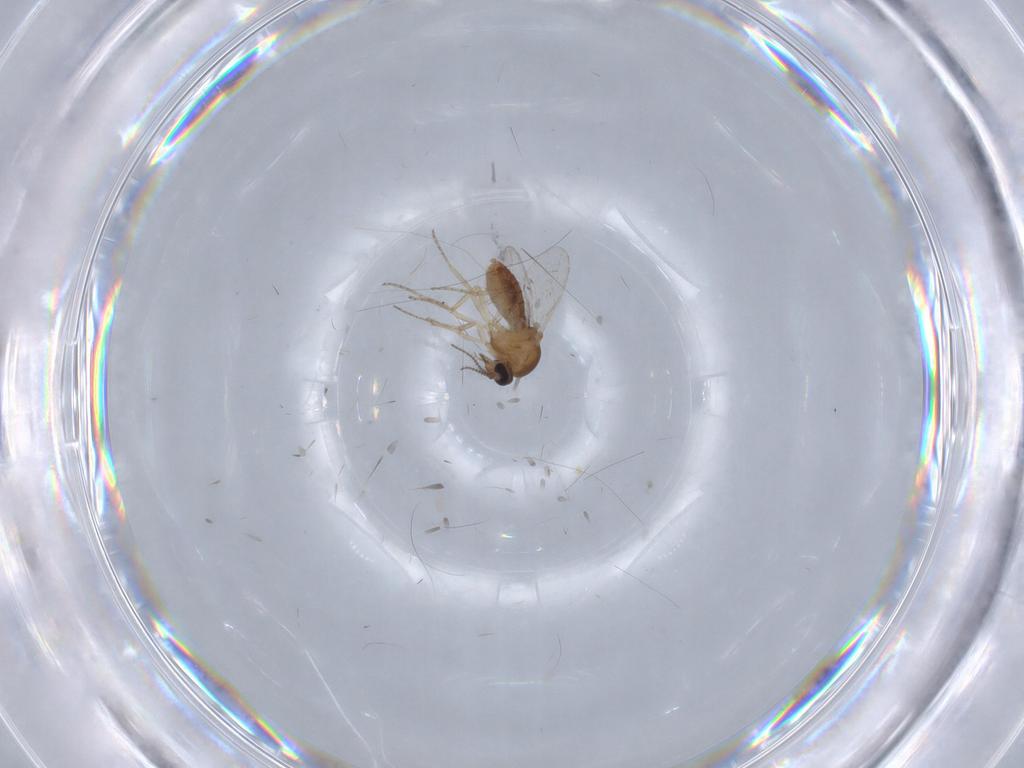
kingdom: Animalia
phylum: Arthropoda
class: Insecta
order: Diptera
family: Ceratopogonidae
